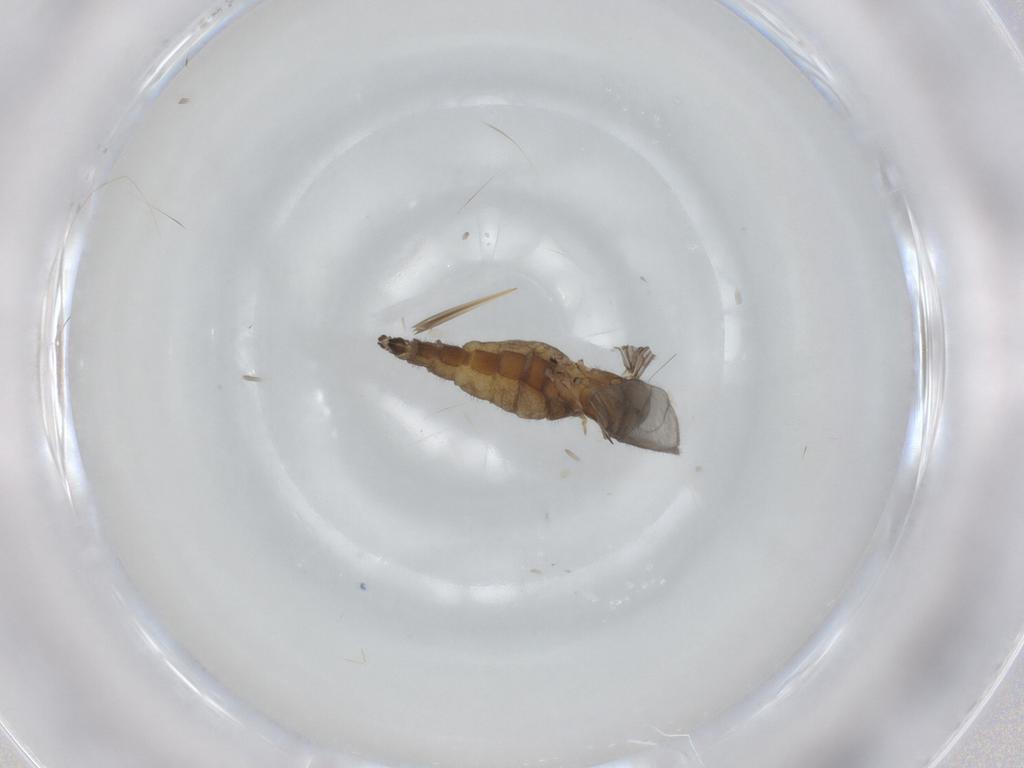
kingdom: Animalia
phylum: Arthropoda
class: Insecta
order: Diptera
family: Sciaridae
